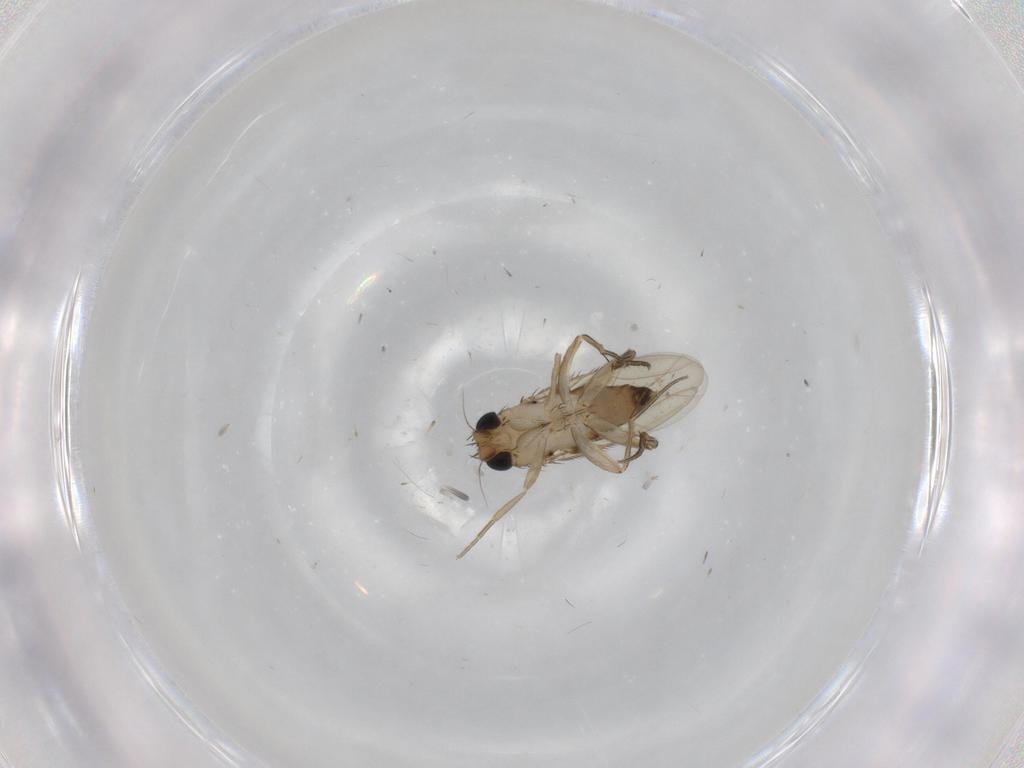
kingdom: Animalia
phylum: Arthropoda
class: Insecta
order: Diptera
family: Phoridae
